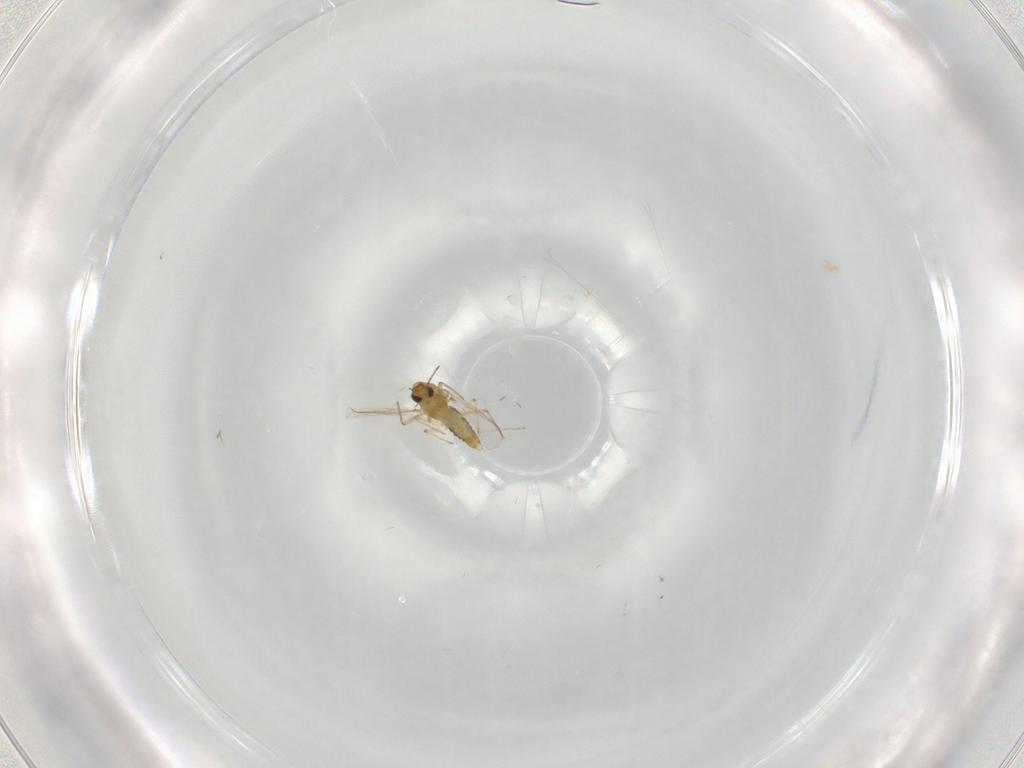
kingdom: Animalia
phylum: Arthropoda
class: Insecta
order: Diptera
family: Chironomidae
